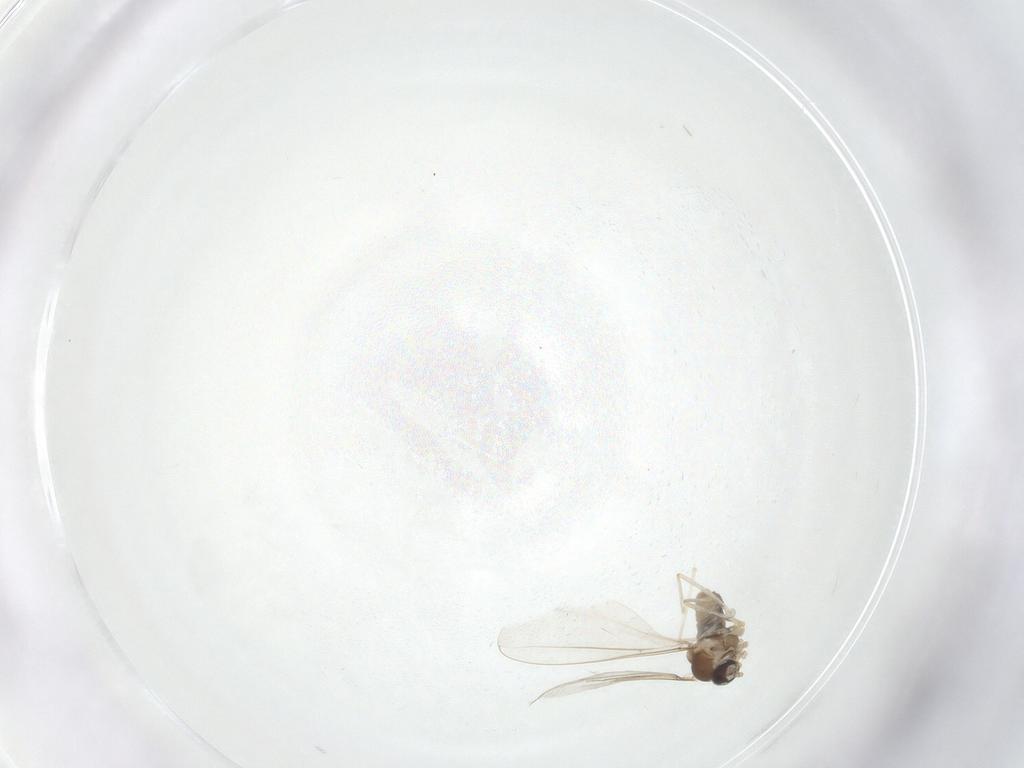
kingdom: Animalia
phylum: Arthropoda
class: Insecta
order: Diptera
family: Cecidomyiidae
